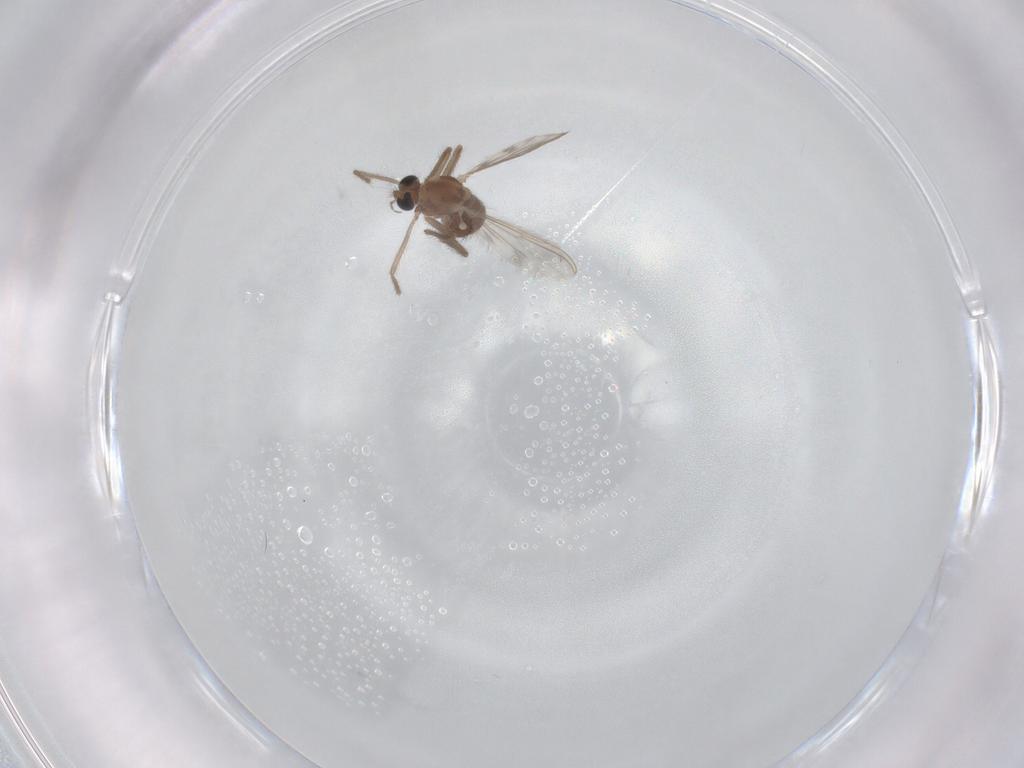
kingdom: Animalia
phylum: Arthropoda
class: Insecta
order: Diptera
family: Chironomidae
